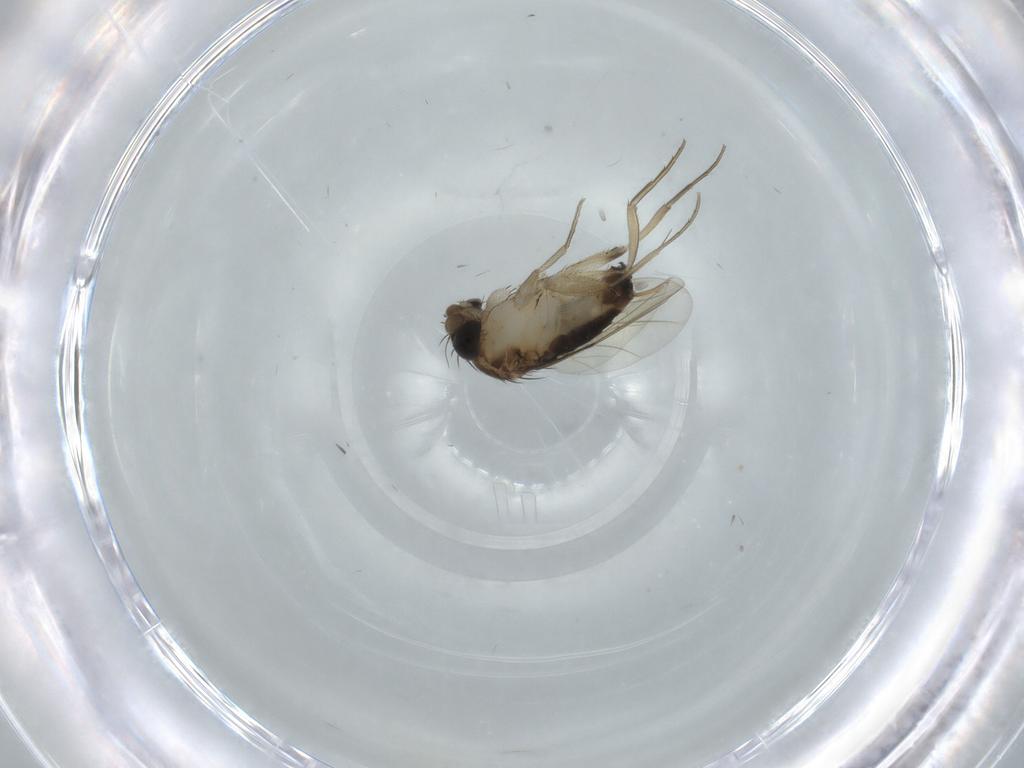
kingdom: Animalia
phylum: Arthropoda
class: Insecta
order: Diptera
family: Phoridae
